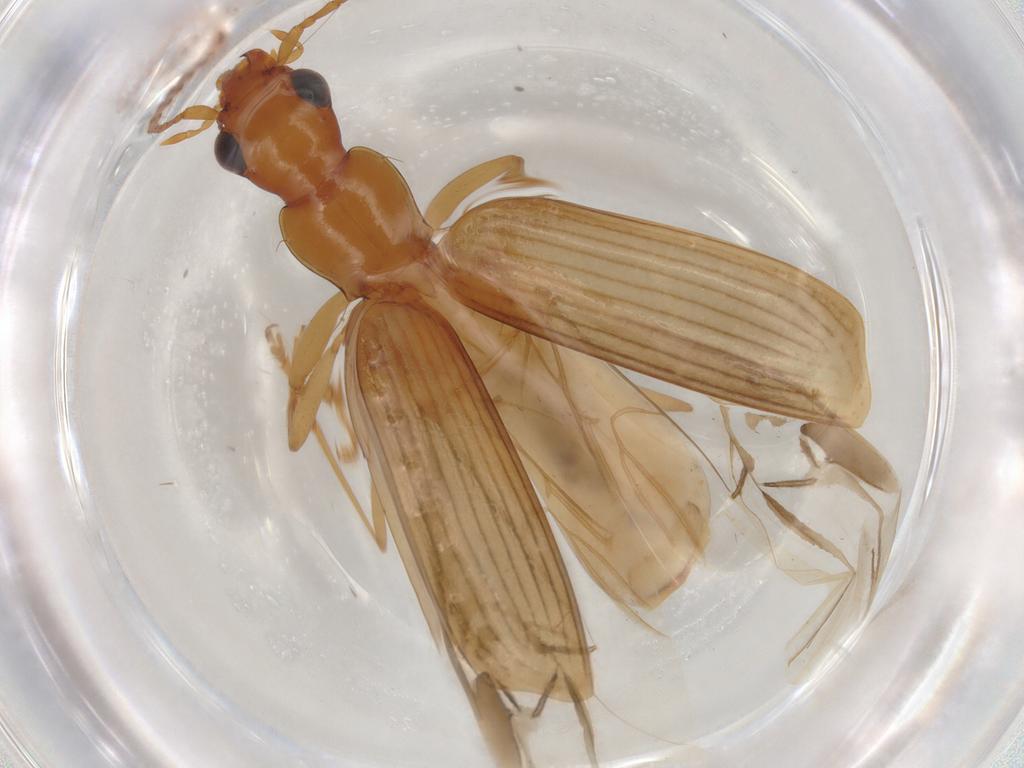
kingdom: Animalia
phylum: Arthropoda
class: Insecta
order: Coleoptera
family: Carabidae
